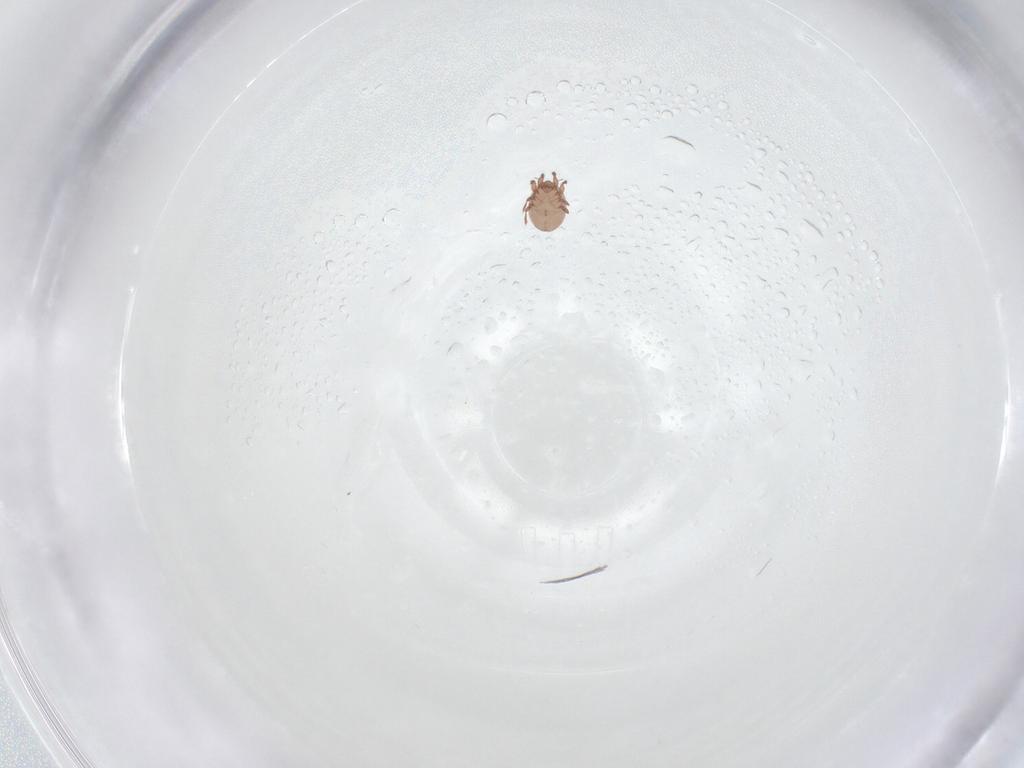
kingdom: Animalia
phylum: Arthropoda
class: Arachnida
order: Sarcoptiformes
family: Eremaeidae
